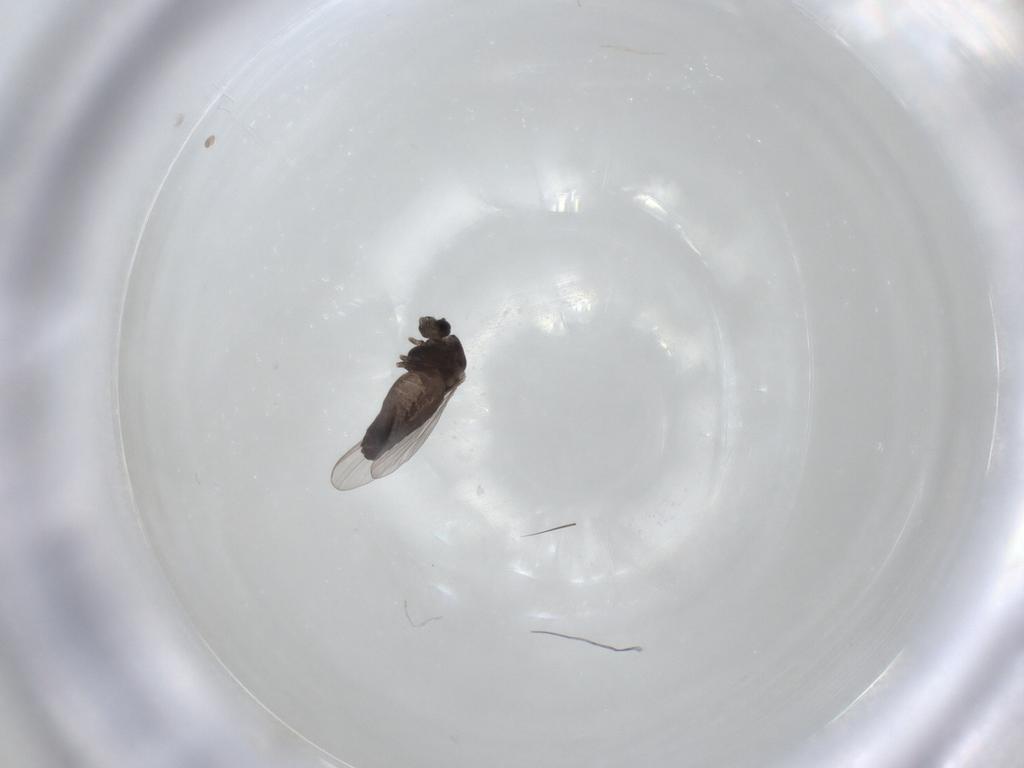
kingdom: Animalia
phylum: Arthropoda
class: Insecta
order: Diptera
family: Chironomidae
